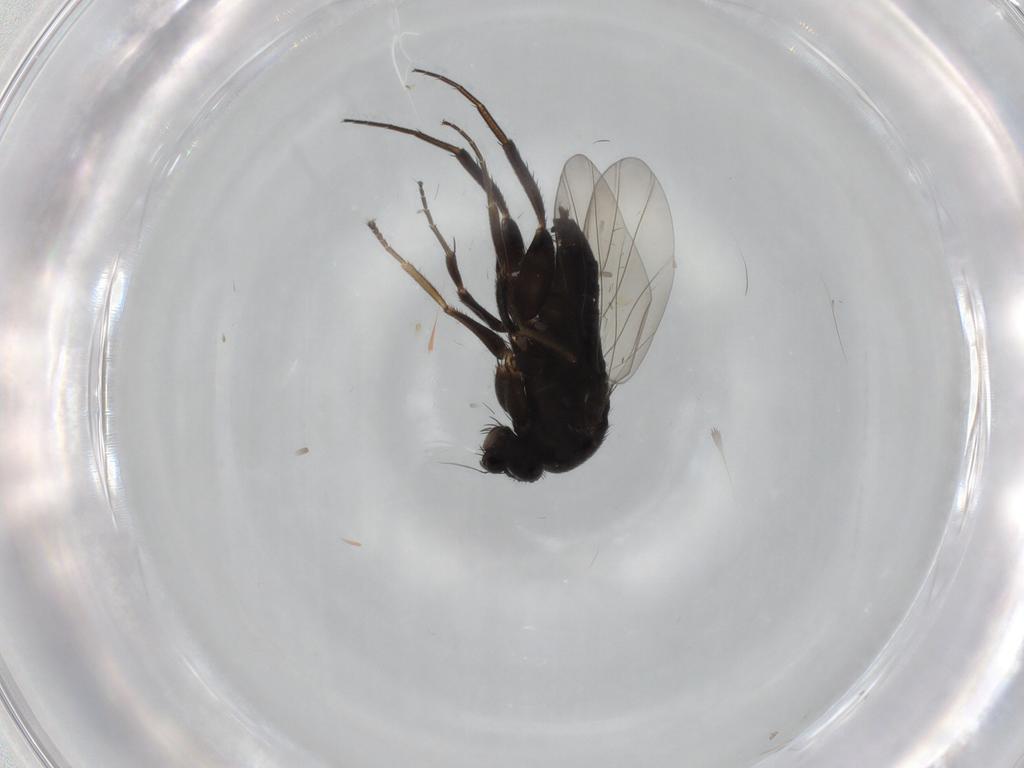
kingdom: Animalia
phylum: Arthropoda
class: Insecta
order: Diptera
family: Phoridae
